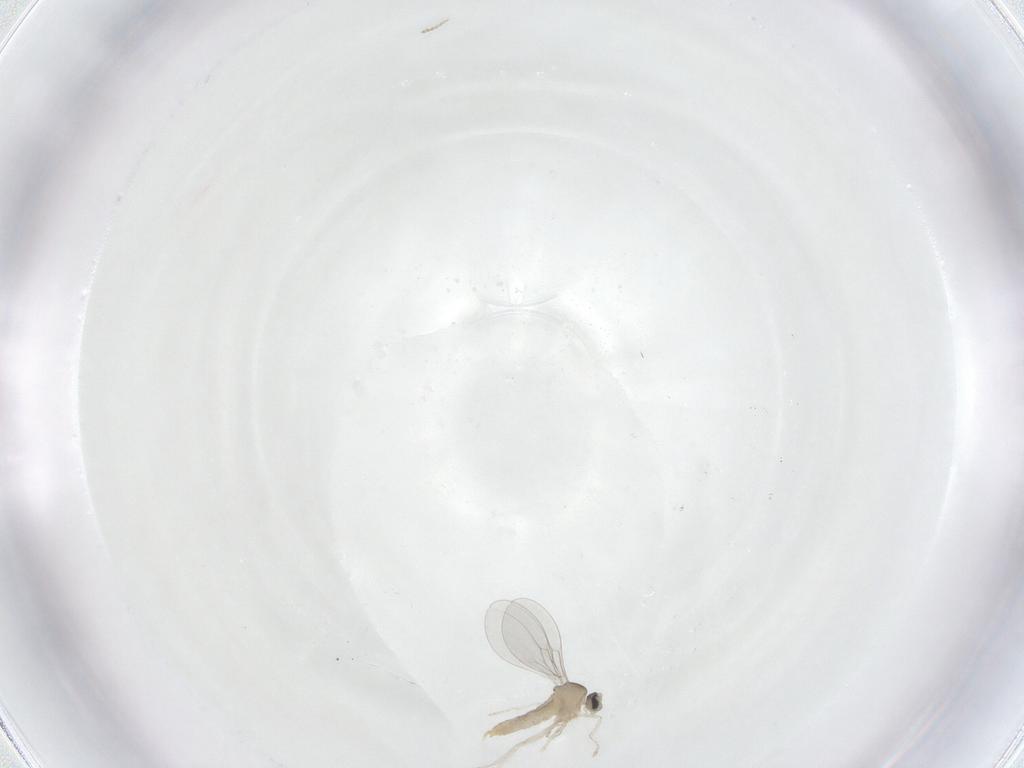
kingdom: Animalia
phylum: Arthropoda
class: Insecta
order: Diptera
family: Cecidomyiidae
